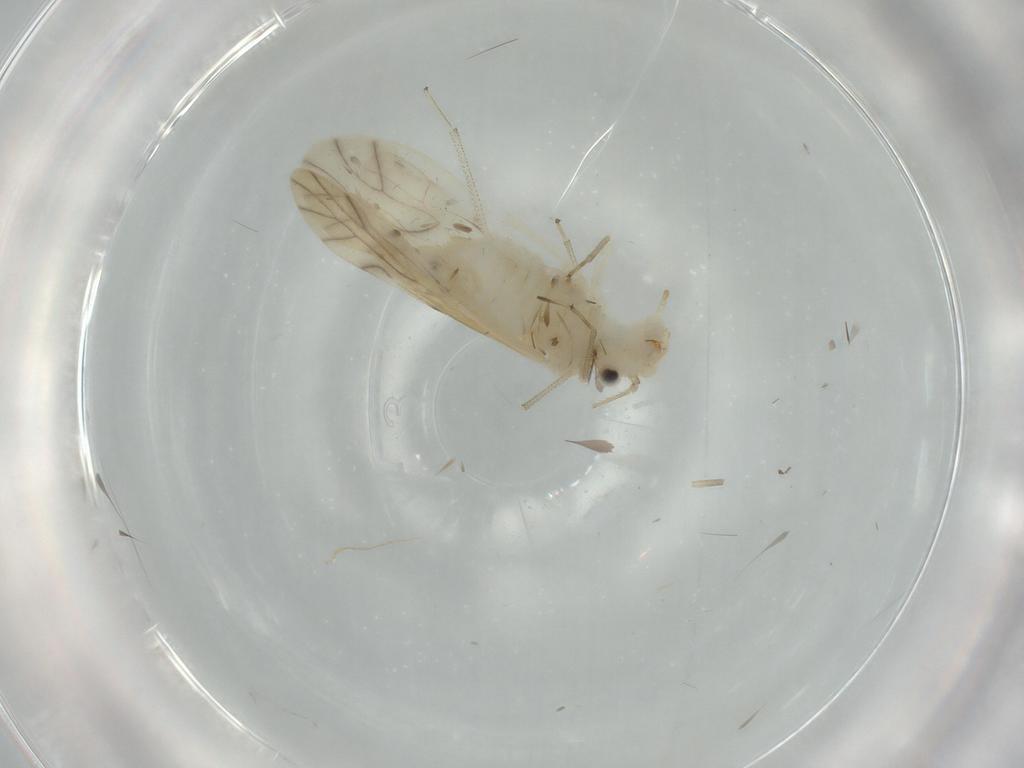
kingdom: Animalia
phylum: Arthropoda
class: Insecta
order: Psocodea
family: Caeciliusidae
